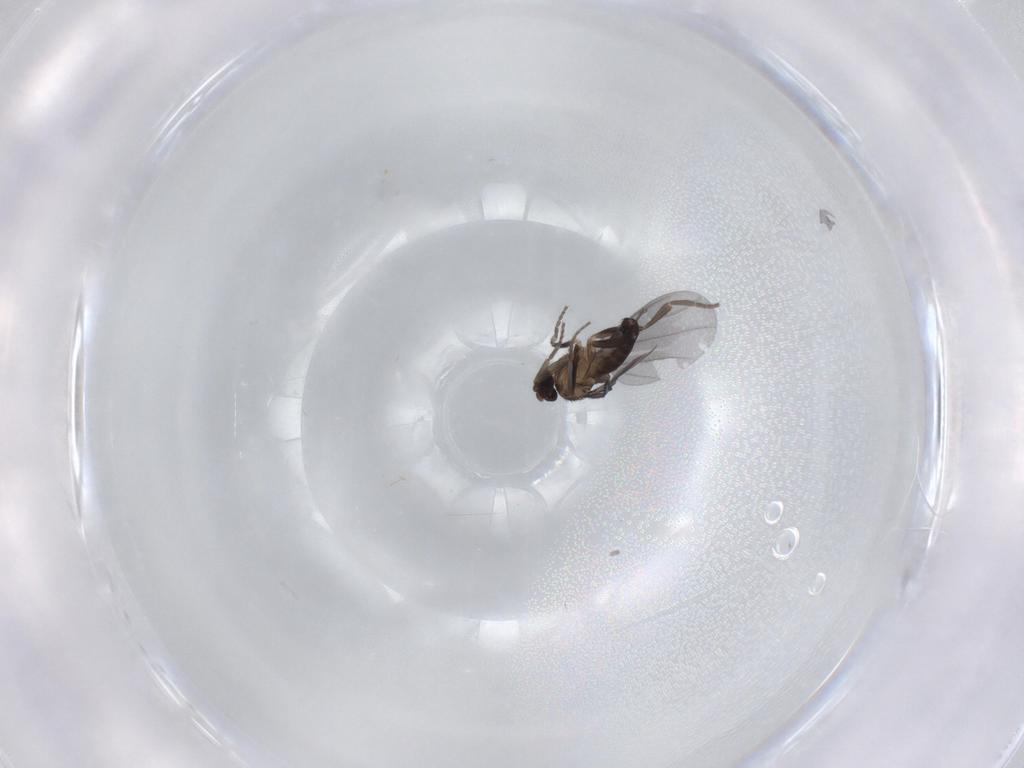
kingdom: Animalia
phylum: Arthropoda
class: Insecta
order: Diptera
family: Phoridae
